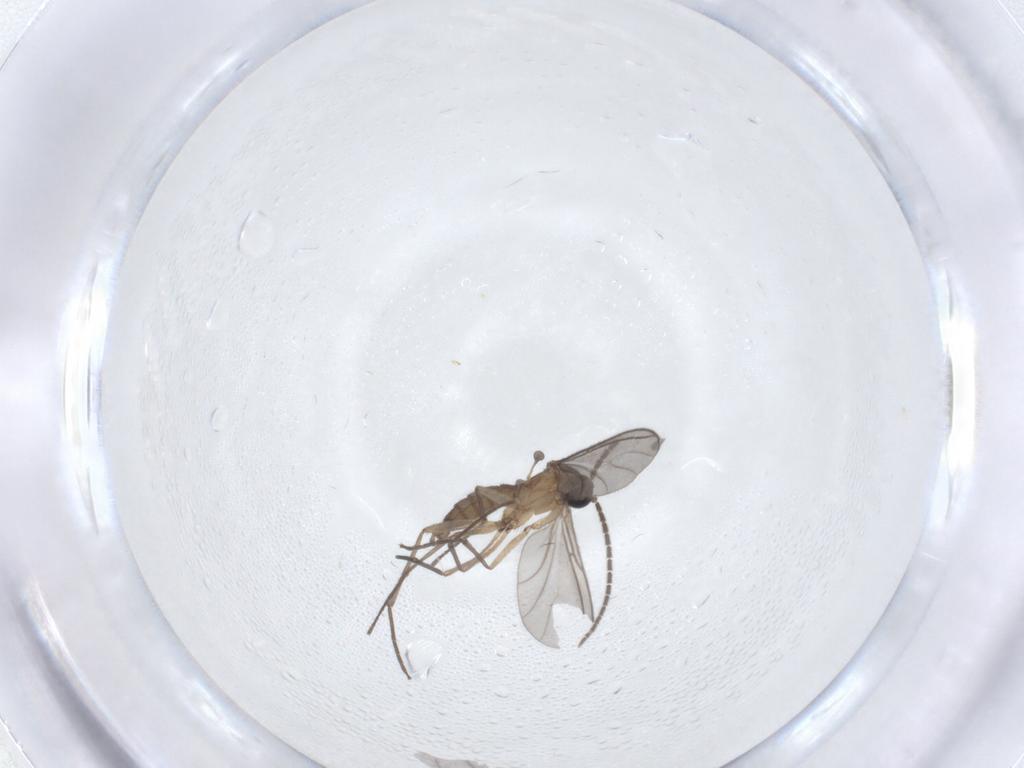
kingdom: Animalia
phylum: Arthropoda
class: Insecta
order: Diptera
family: Sciaridae
